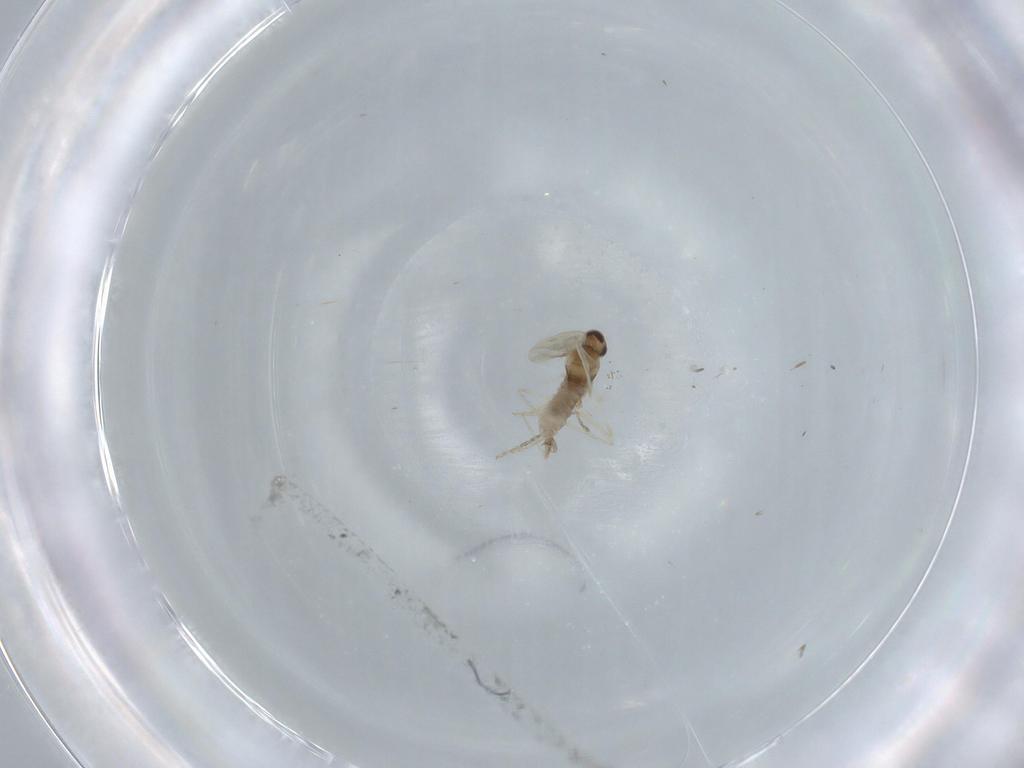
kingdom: Animalia
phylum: Arthropoda
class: Insecta
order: Diptera
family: Cecidomyiidae
